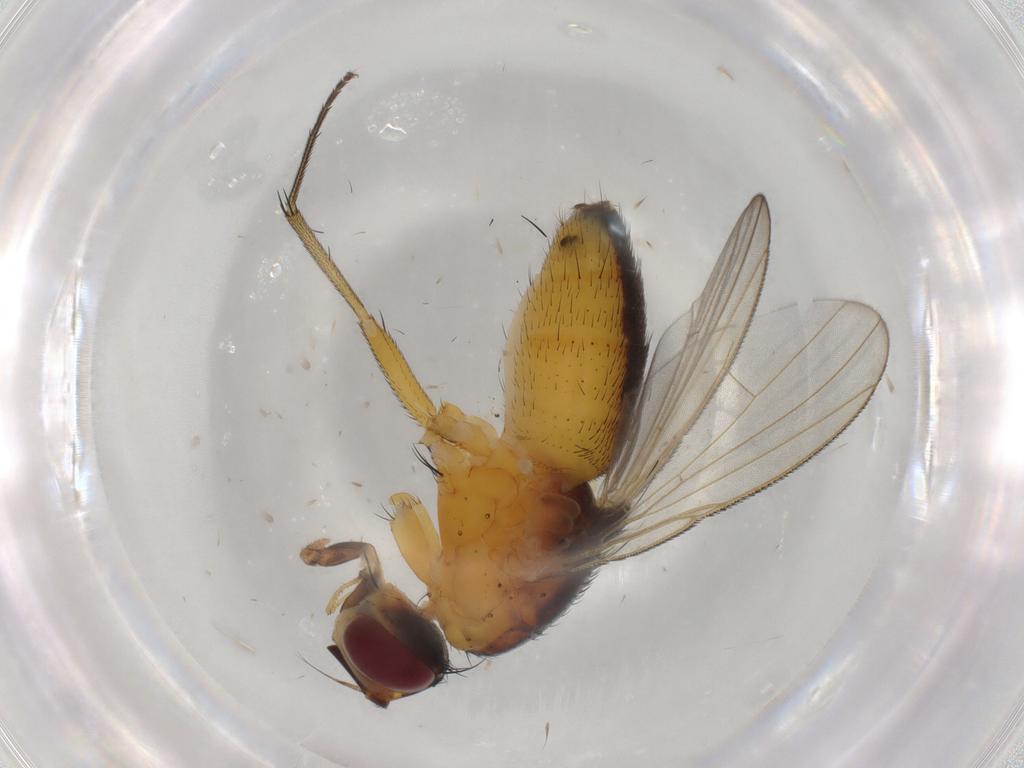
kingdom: Animalia
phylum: Arthropoda
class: Insecta
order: Diptera
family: Muscidae
